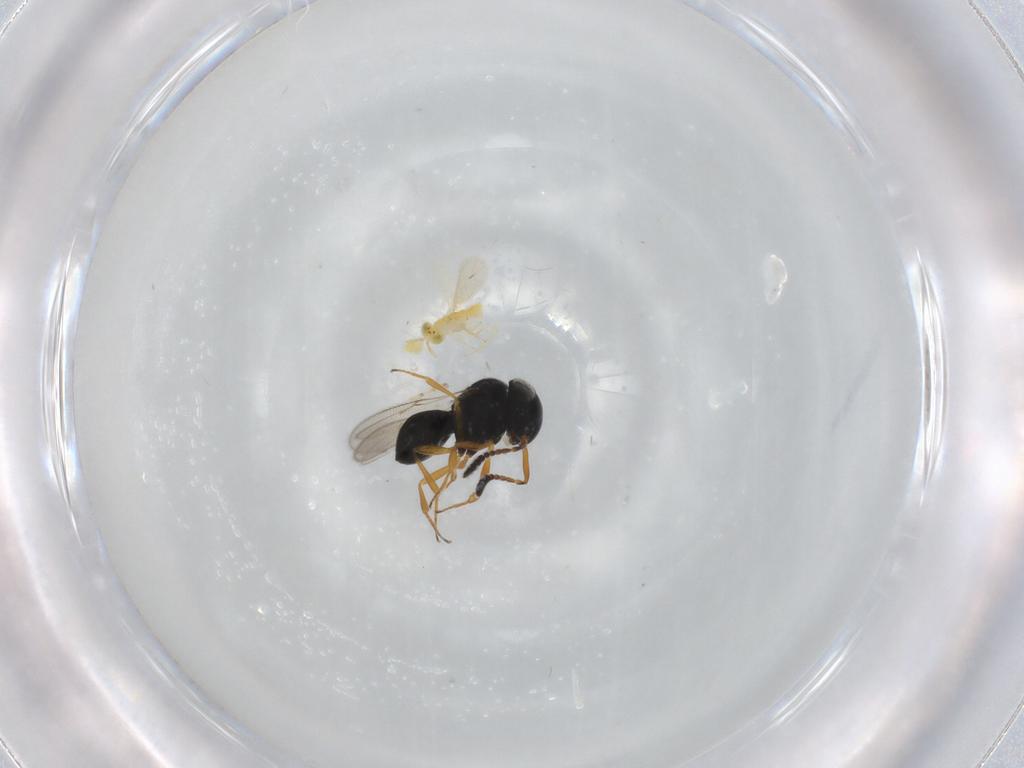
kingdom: Animalia
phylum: Arthropoda
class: Insecta
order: Hymenoptera
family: Scelionidae
